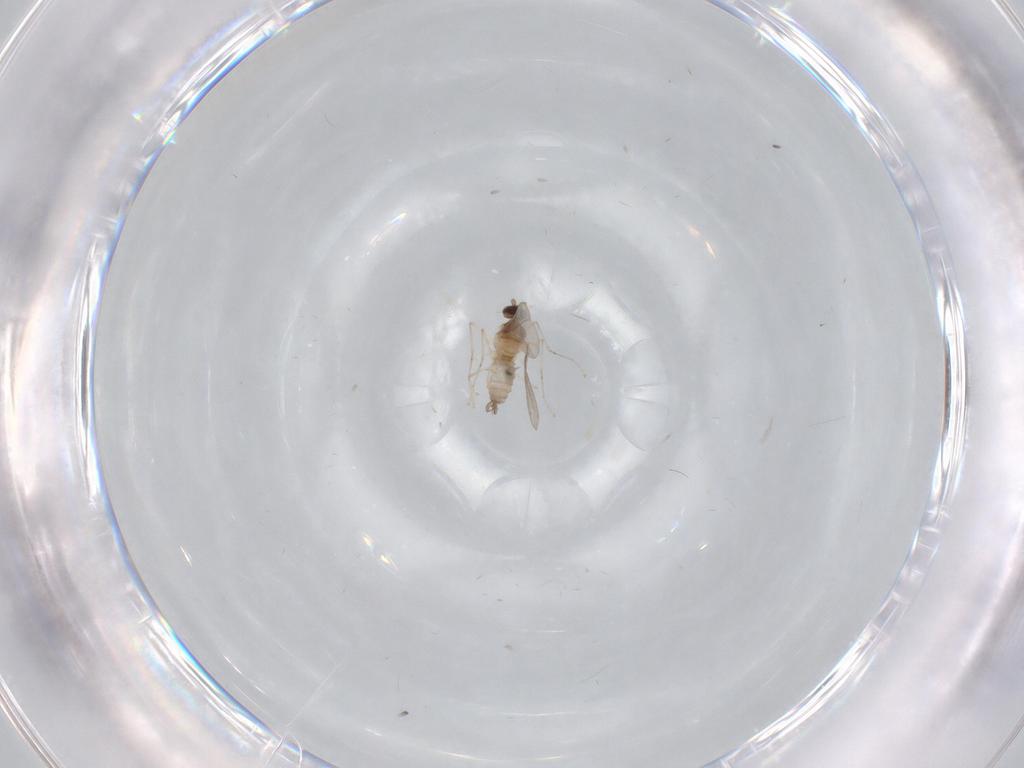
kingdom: Animalia
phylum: Arthropoda
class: Insecta
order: Diptera
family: Cecidomyiidae
